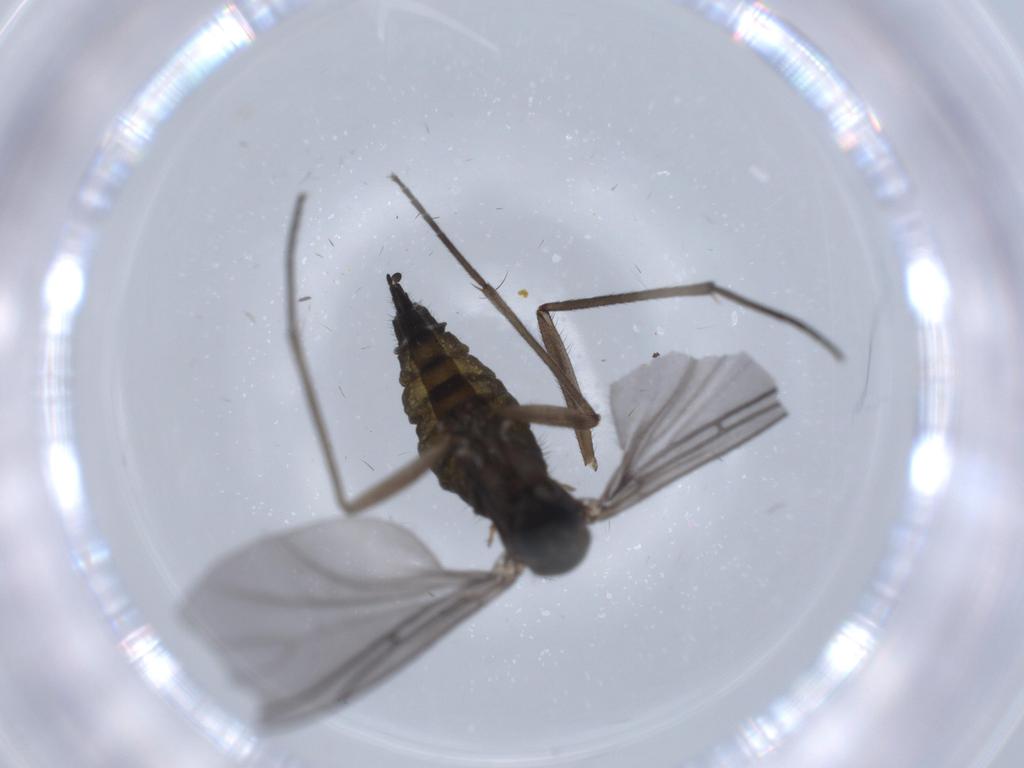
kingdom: Animalia
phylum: Arthropoda
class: Insecta
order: Diptera
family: Sciaridae
